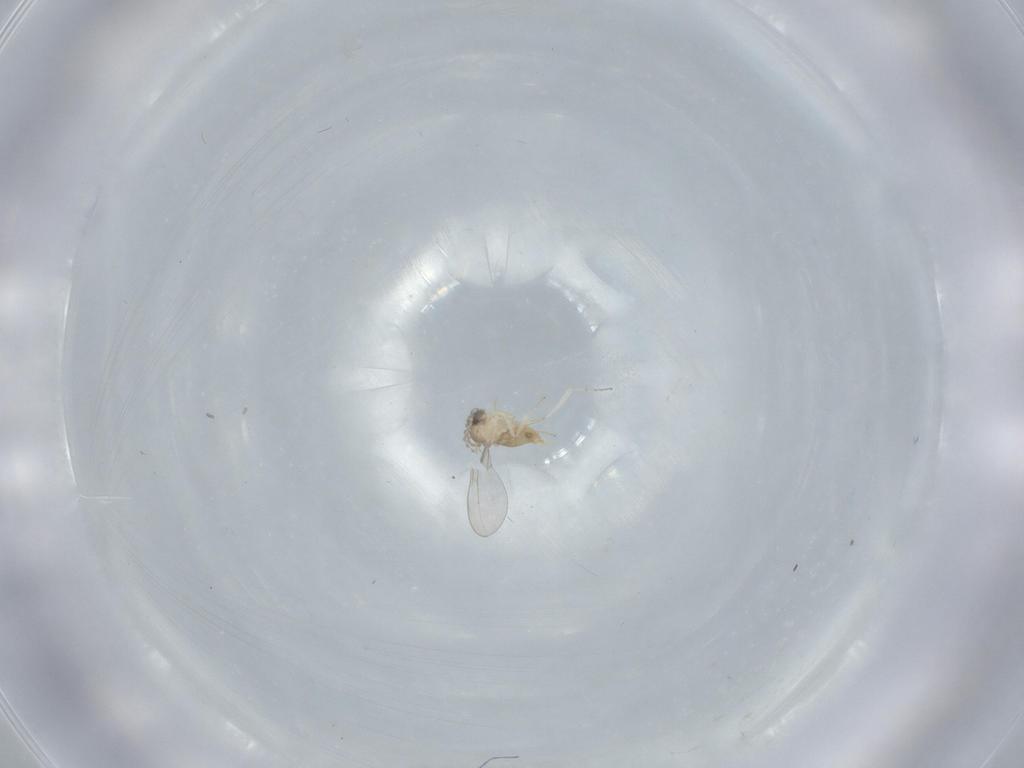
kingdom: Animalia
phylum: Arthropoda
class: Insecta
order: Diptera
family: Cecidomyiidae
